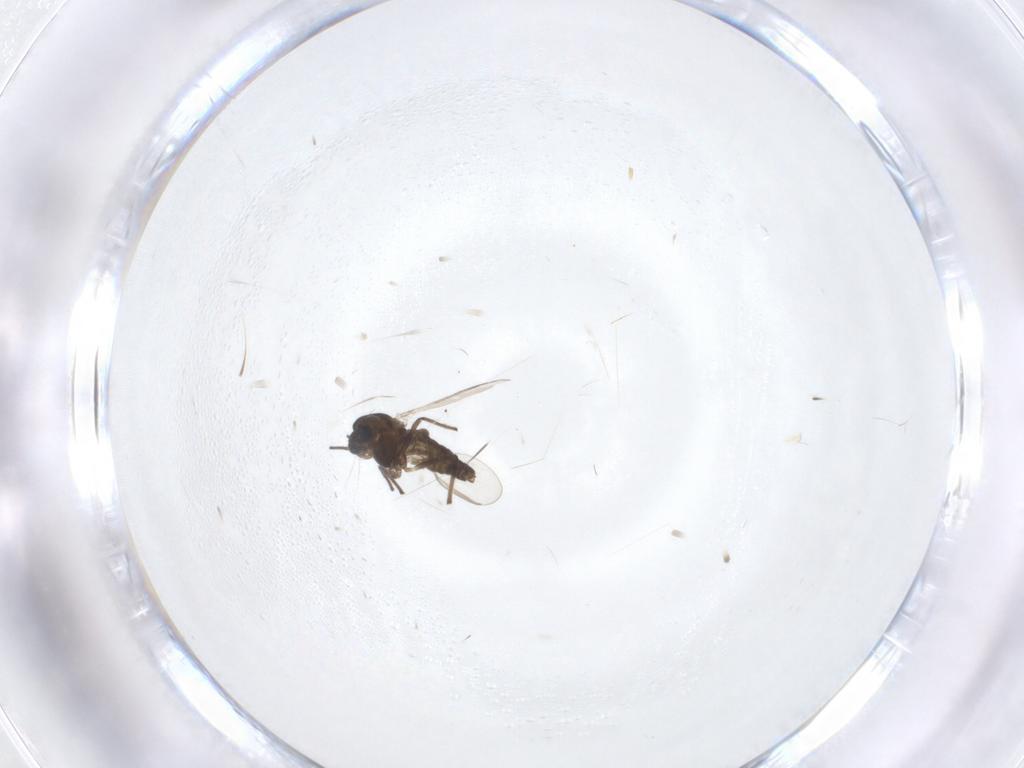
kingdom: Animalia
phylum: Arthropoda
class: Insecta
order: Diptera
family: Chironomidae
